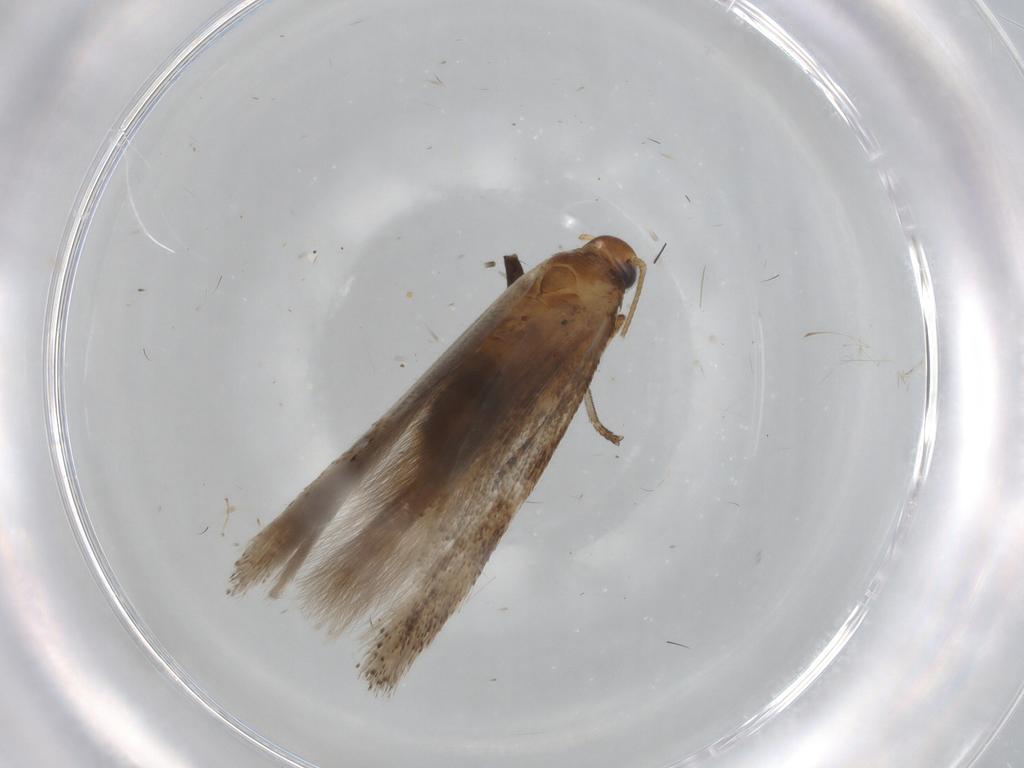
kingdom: Animalia
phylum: Arthropoda
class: Insecta
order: Lepidoptera
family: Gelechiidae
